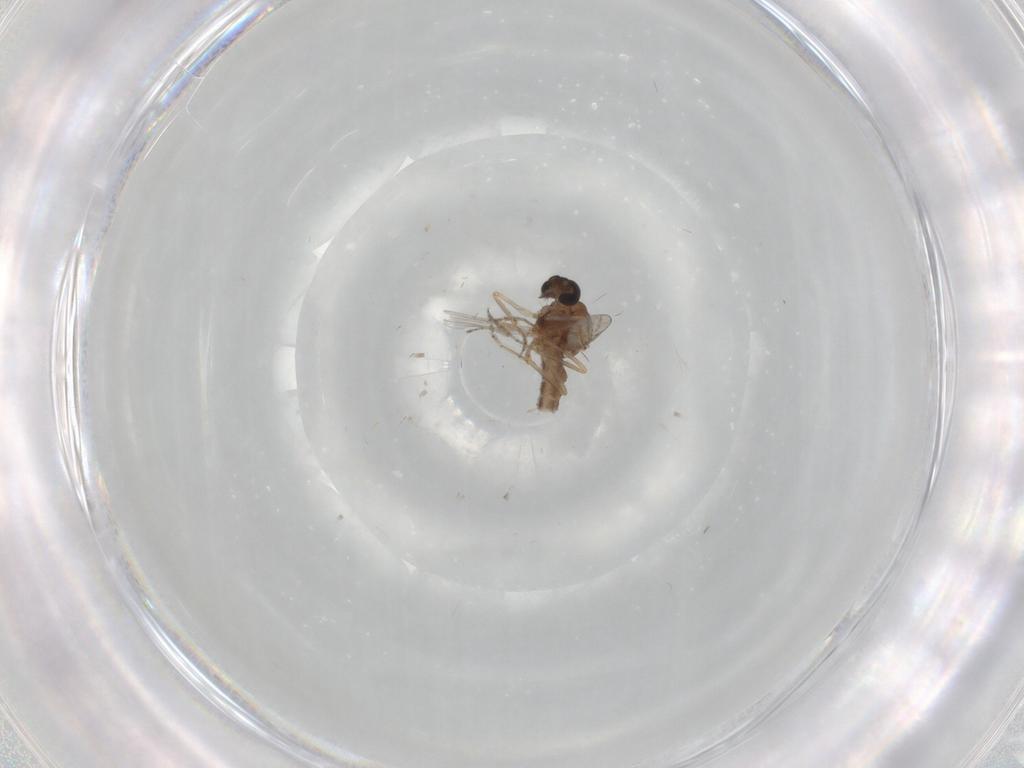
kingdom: Animalia
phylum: Arthropoda
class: Insecta
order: Diptera
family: Ceratopogonidae
